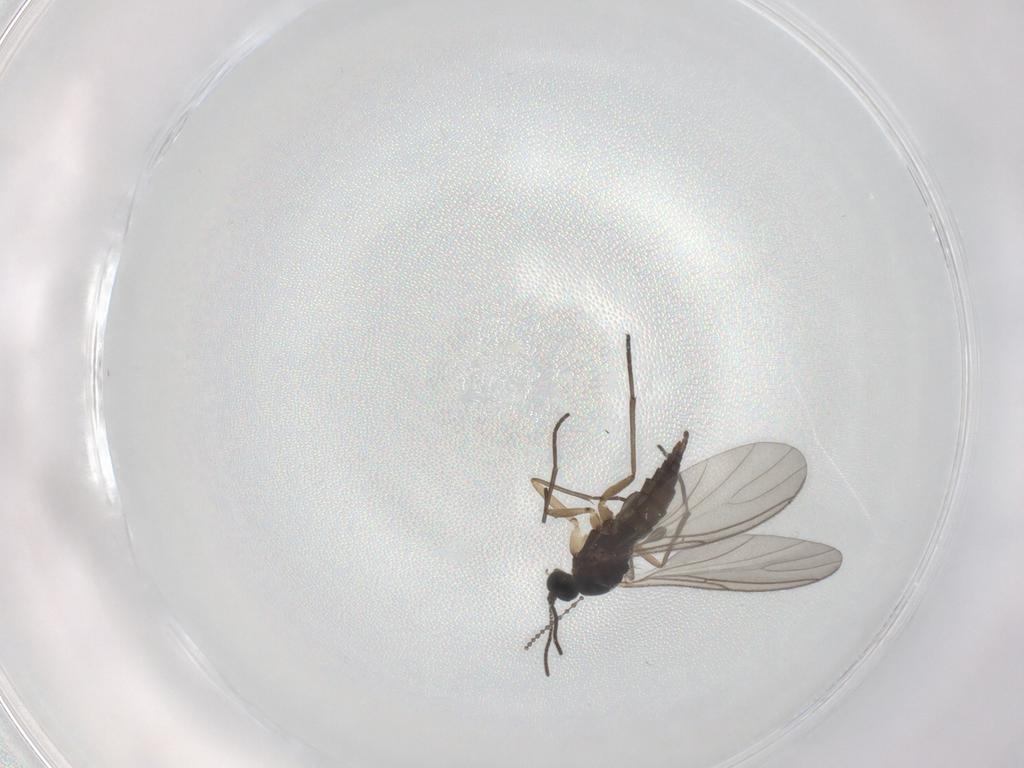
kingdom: Animalia
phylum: Arthropoda
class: Insecta
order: Diptera
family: Sciaridae
